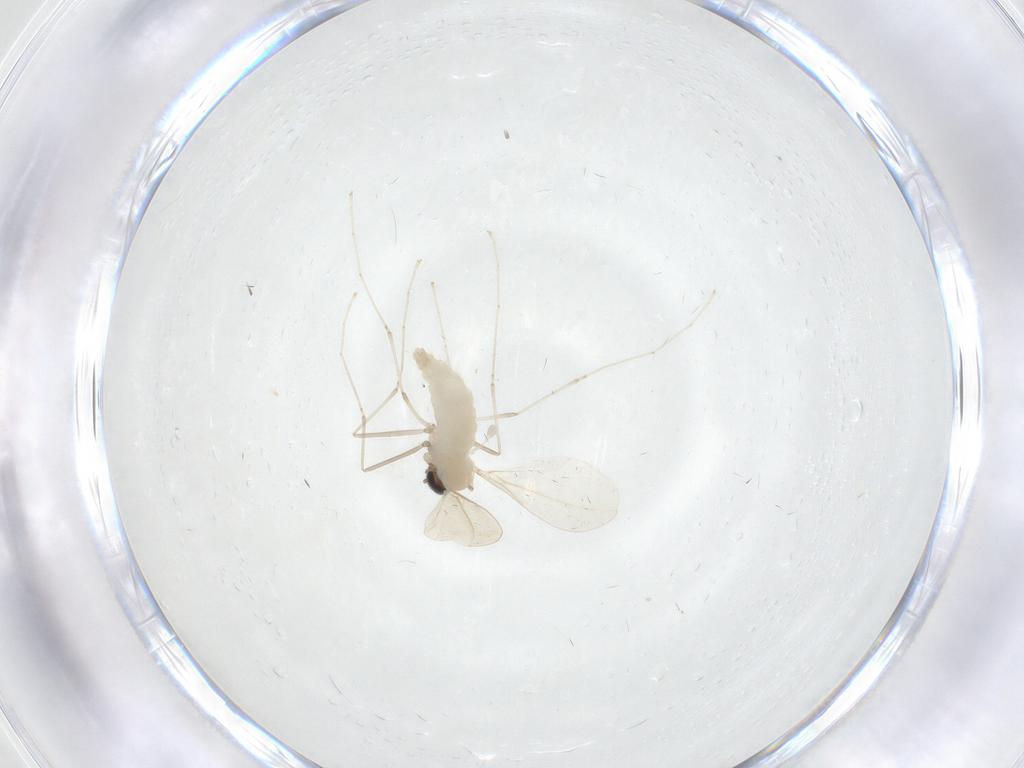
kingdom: Animalia
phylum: Arthropoda
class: Insecta
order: Diptera
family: Cecidomyiidae
